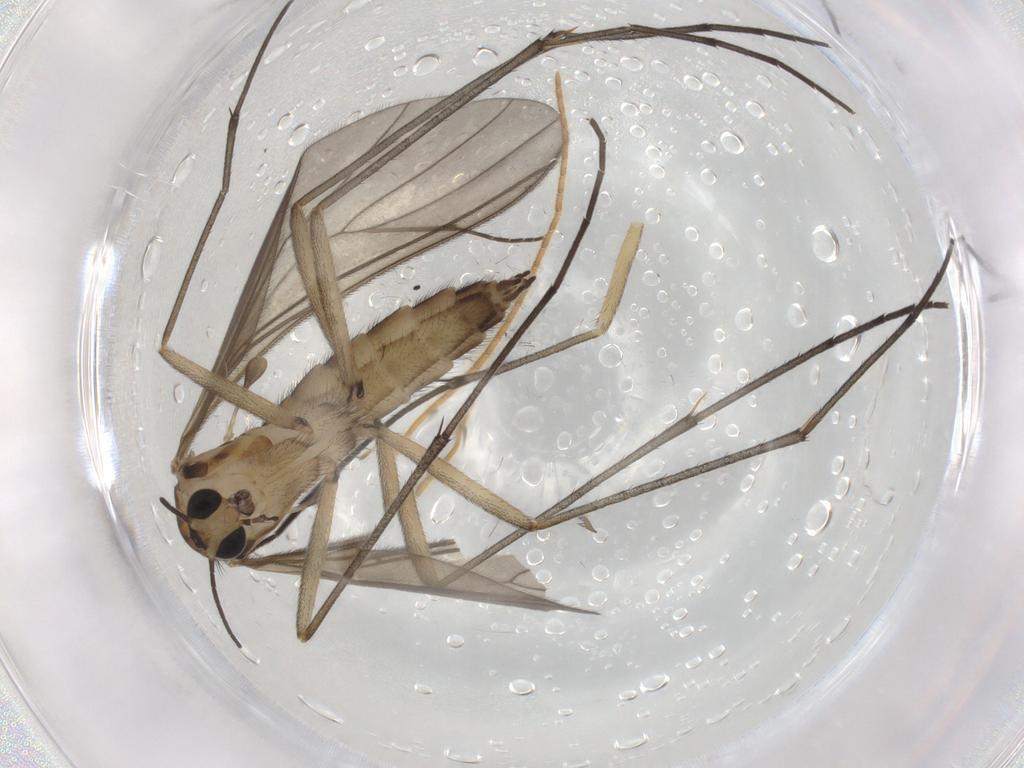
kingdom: Animalia
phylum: Arthropoda
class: Insecta
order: Diptera
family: Sciaridae
